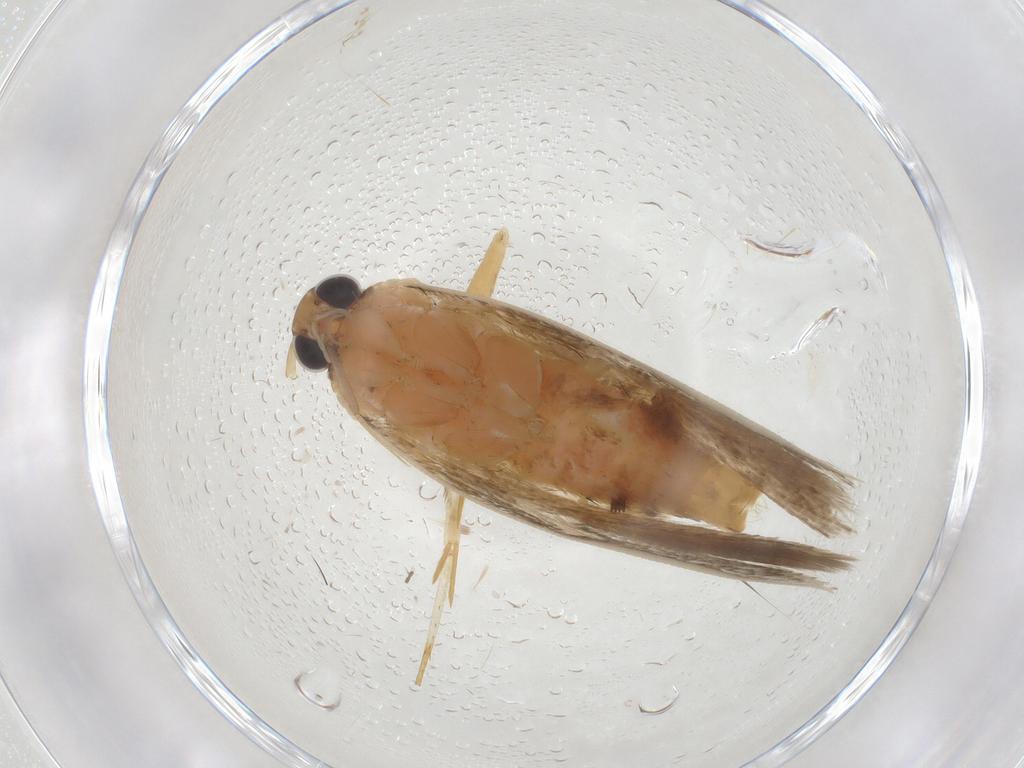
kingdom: Animalia
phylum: Arthropoda
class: Insecta
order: Lepidoptera
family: Gelechiidae
